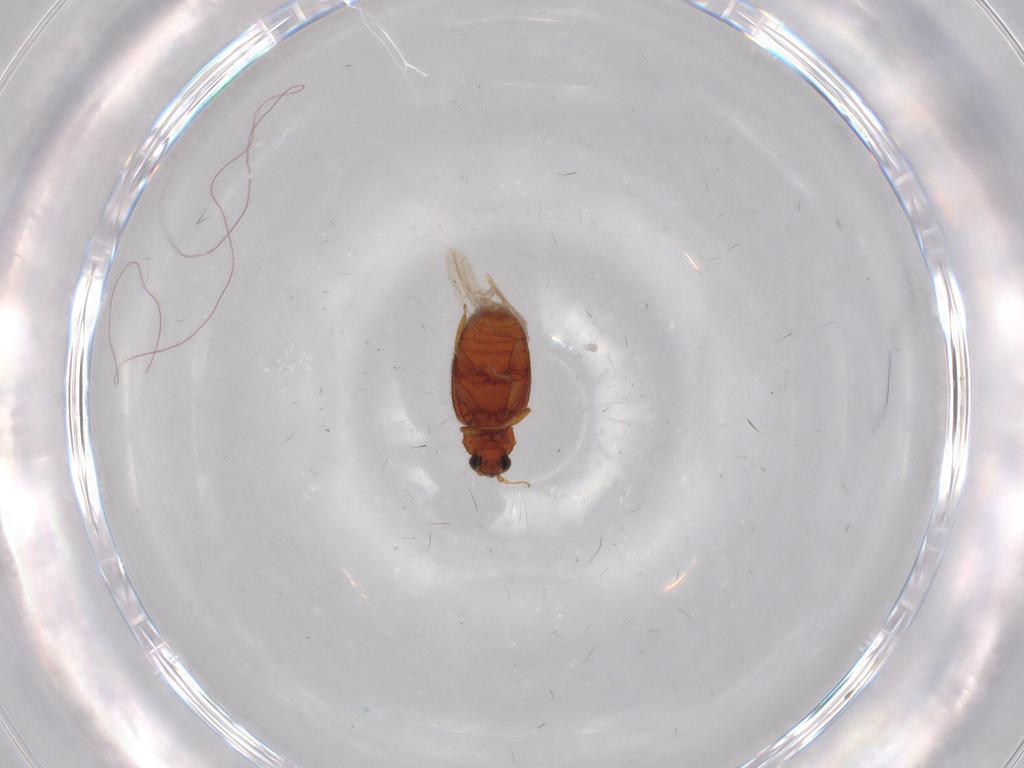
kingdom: Animalia
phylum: Arthropoda
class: Insecta
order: Coleoptera
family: Latridiidae
